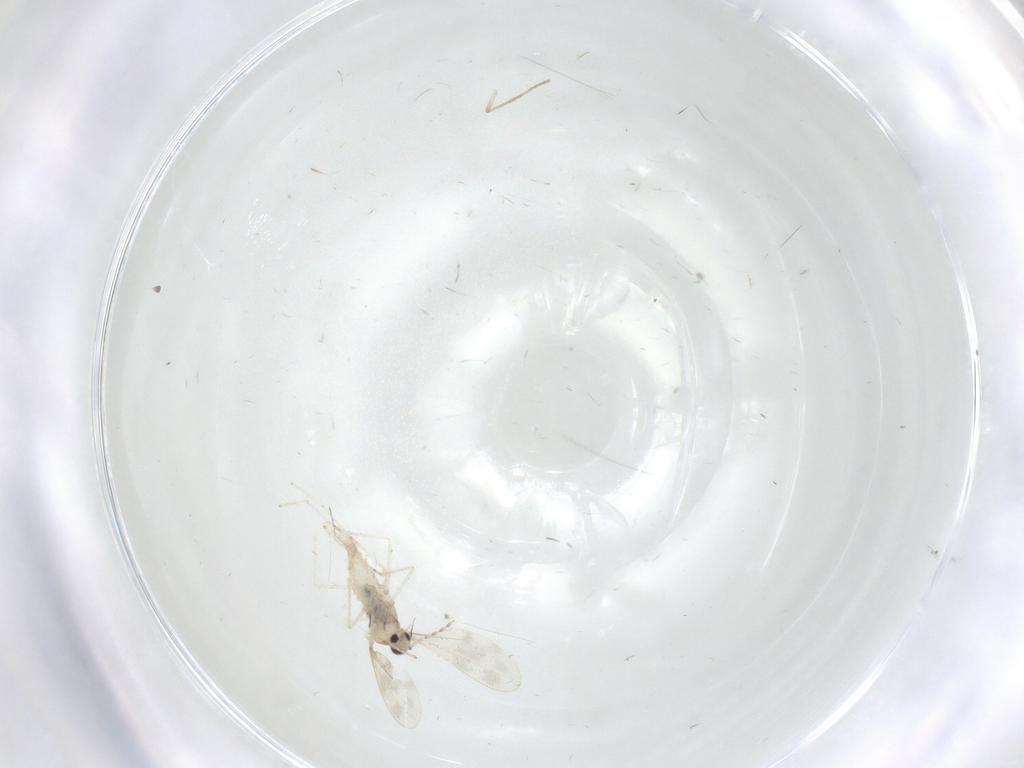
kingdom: Animalia
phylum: Arthropoda
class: Insecta
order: Diptera
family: Cecidomyiidae
